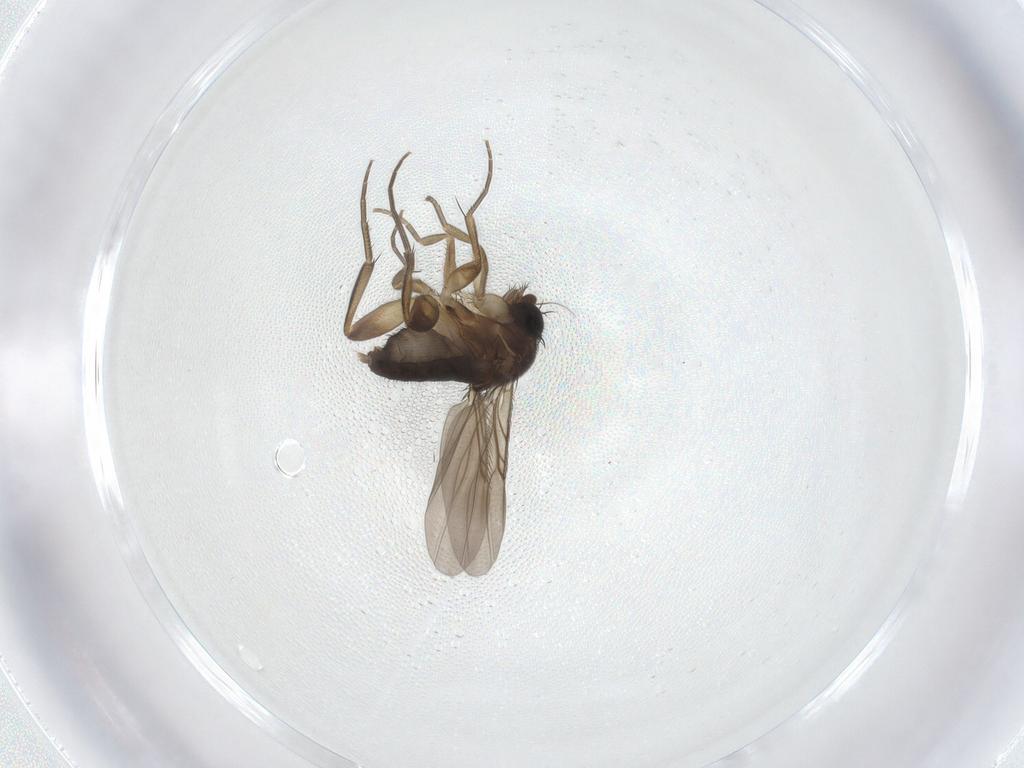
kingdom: Animalia
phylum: Arthropoda
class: Insecta
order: Diptera
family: Phoridae
